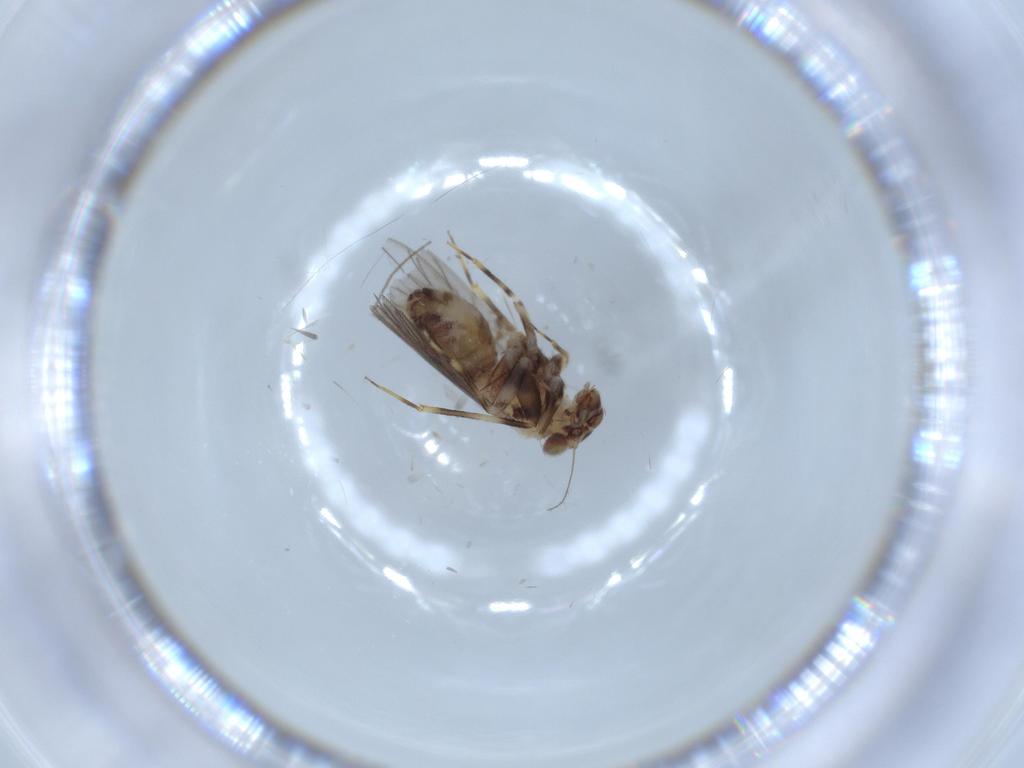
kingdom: Animalia
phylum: Arthropoda
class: Insecta
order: Psocodea
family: Lepidopsocidae
